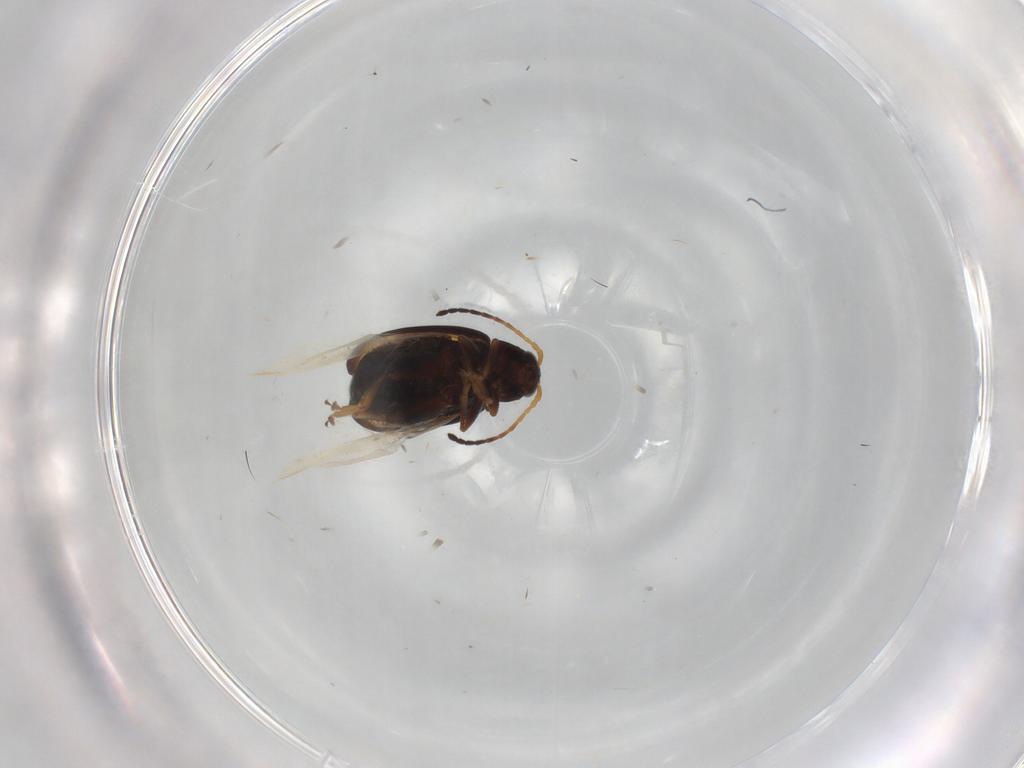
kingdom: Animalia
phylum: Arthropoda
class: Insecta
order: Coleoptera
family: Chrysomelidae
